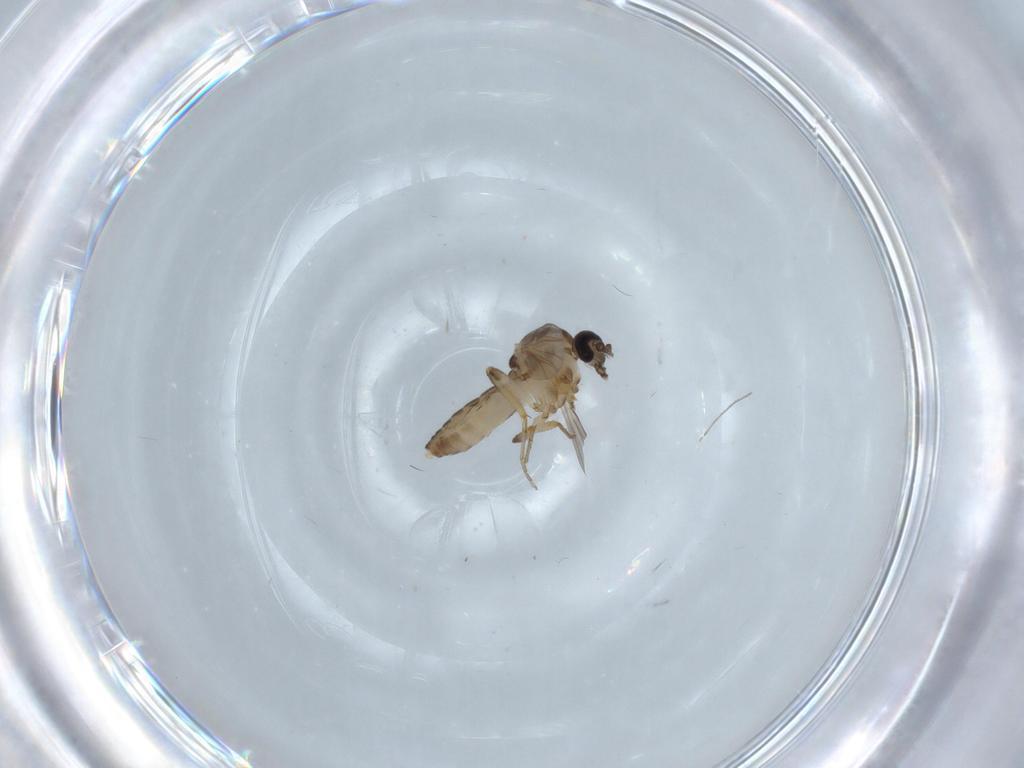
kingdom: Animalia
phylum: Arthropoda
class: Insecta
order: Diptera
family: Ceratopogonidae
